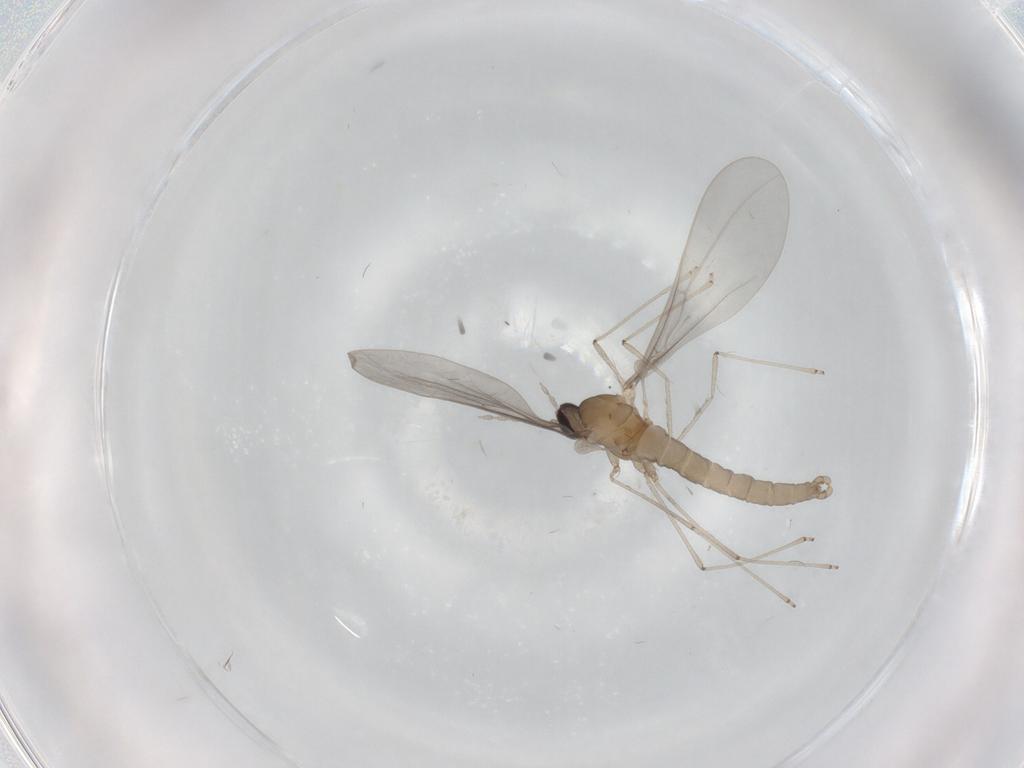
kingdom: Animalia
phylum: Arthropoda
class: Insecta
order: Diptera
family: Cecidomyiidae
